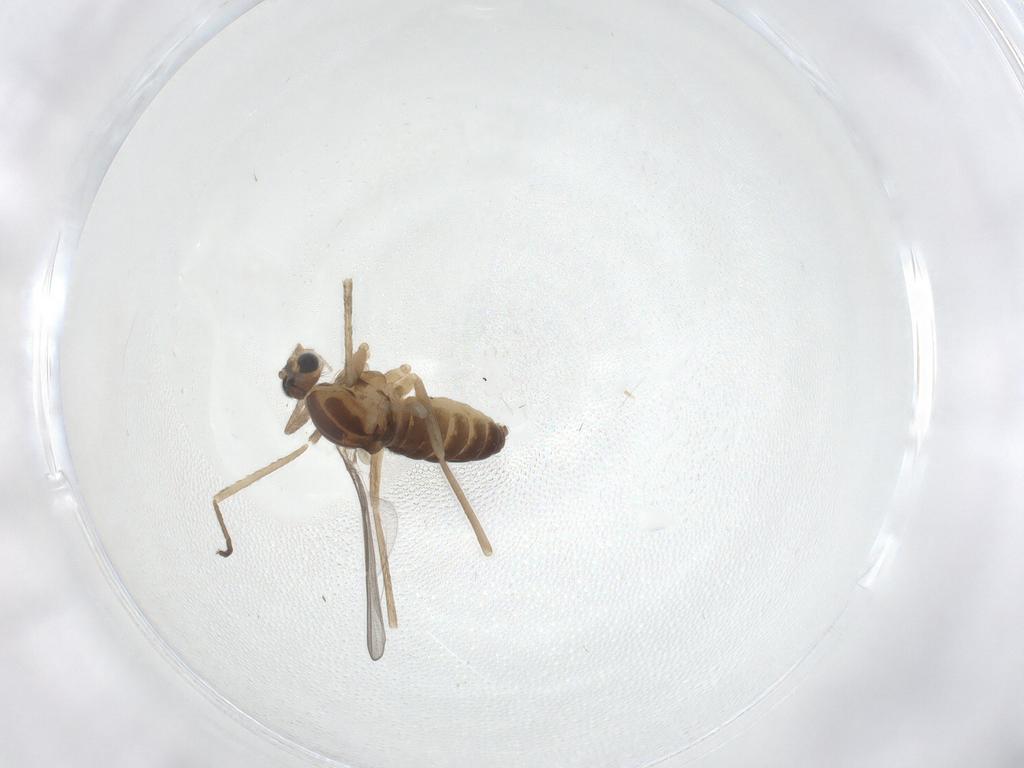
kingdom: Animalia
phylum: Arthropoda
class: Insecta
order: Diptera
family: Cecidomyiidae
